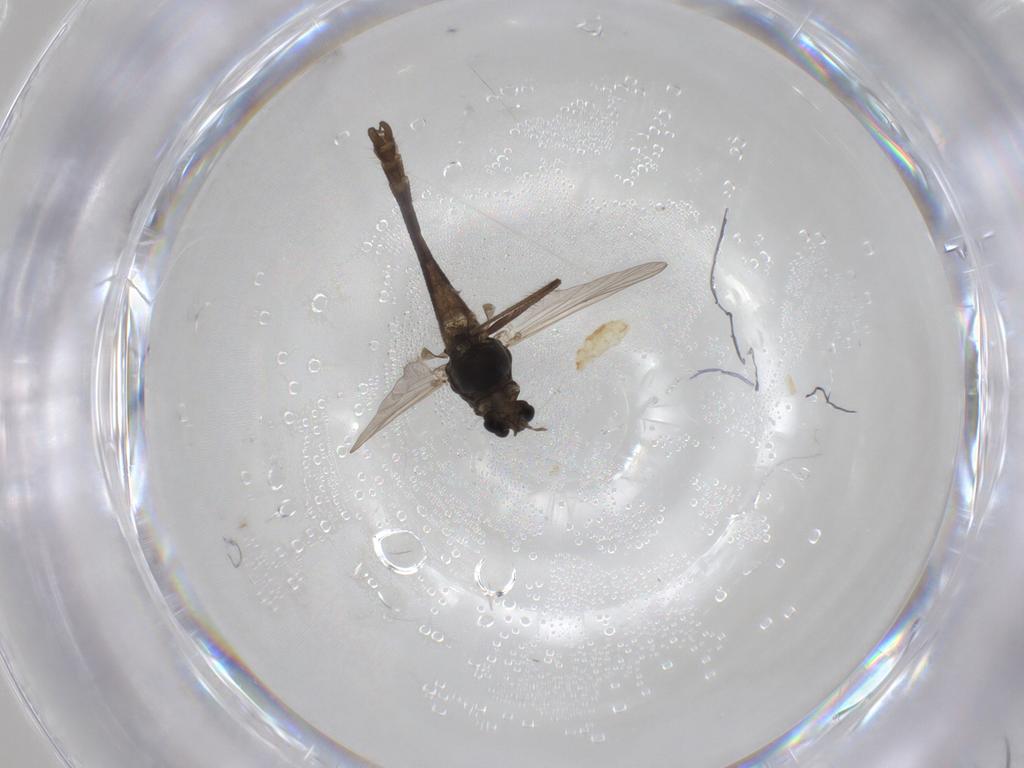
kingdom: Animalia
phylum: Arthropoda
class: Insecta
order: Diptera
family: Chironomidae
